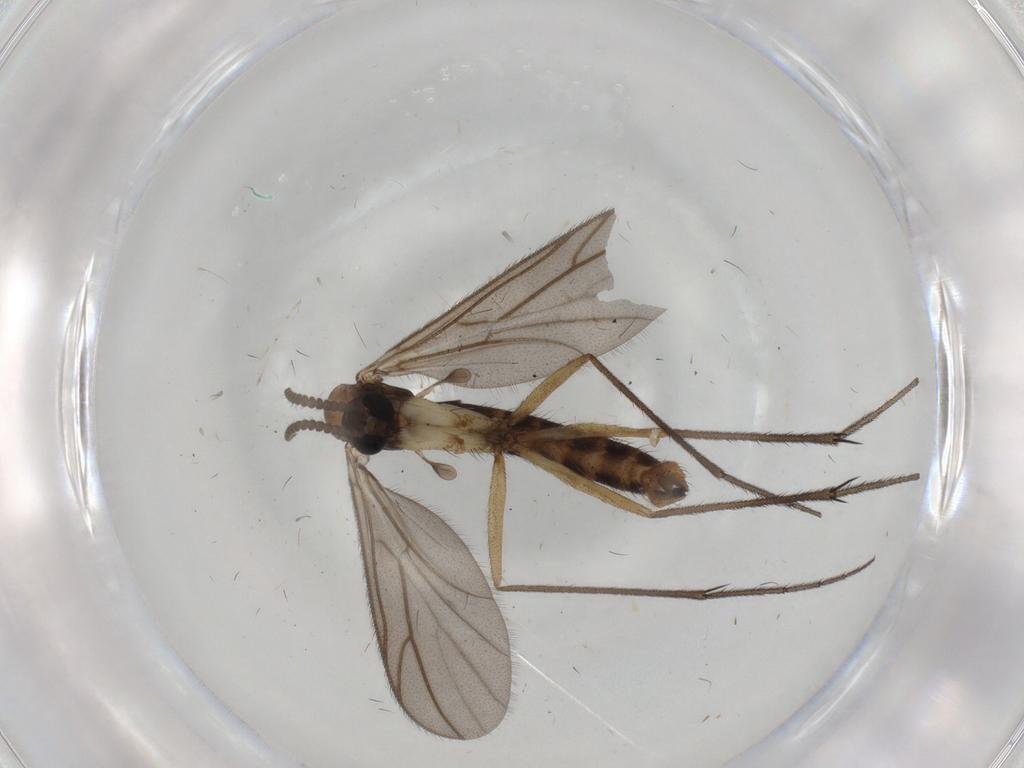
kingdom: Animalia
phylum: Arthropoda
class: Insecta
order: Diptera
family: Cecidomyiidae
